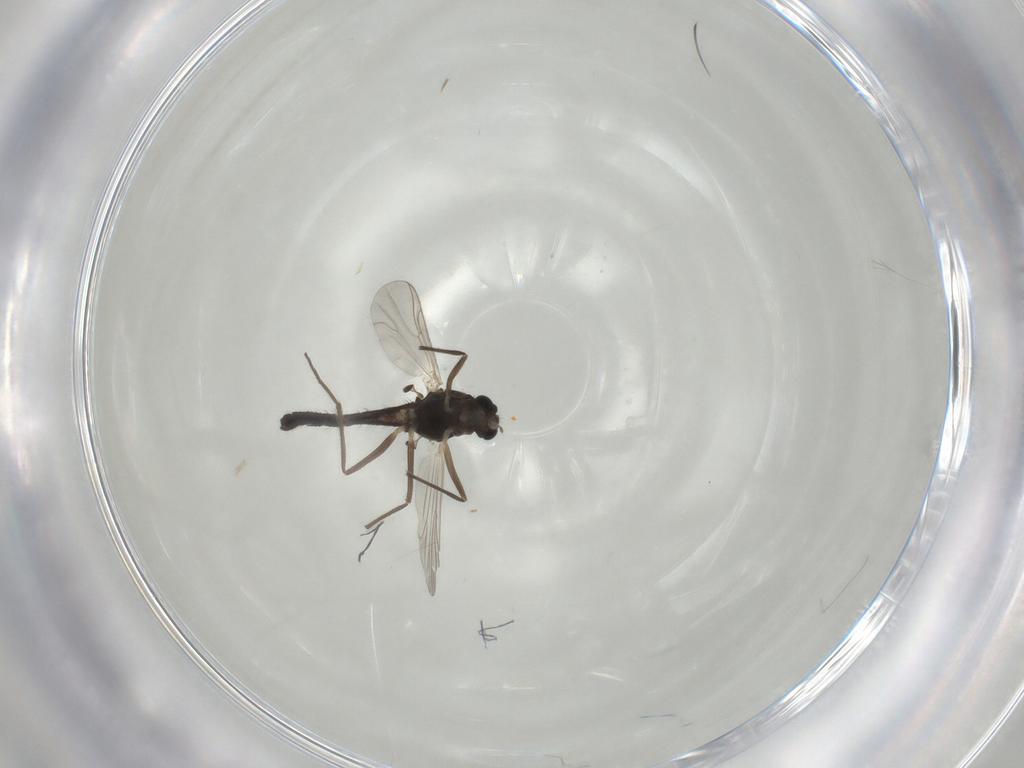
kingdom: Animalia
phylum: Arthropoda
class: Insecta
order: Diptera
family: Chironomidae
